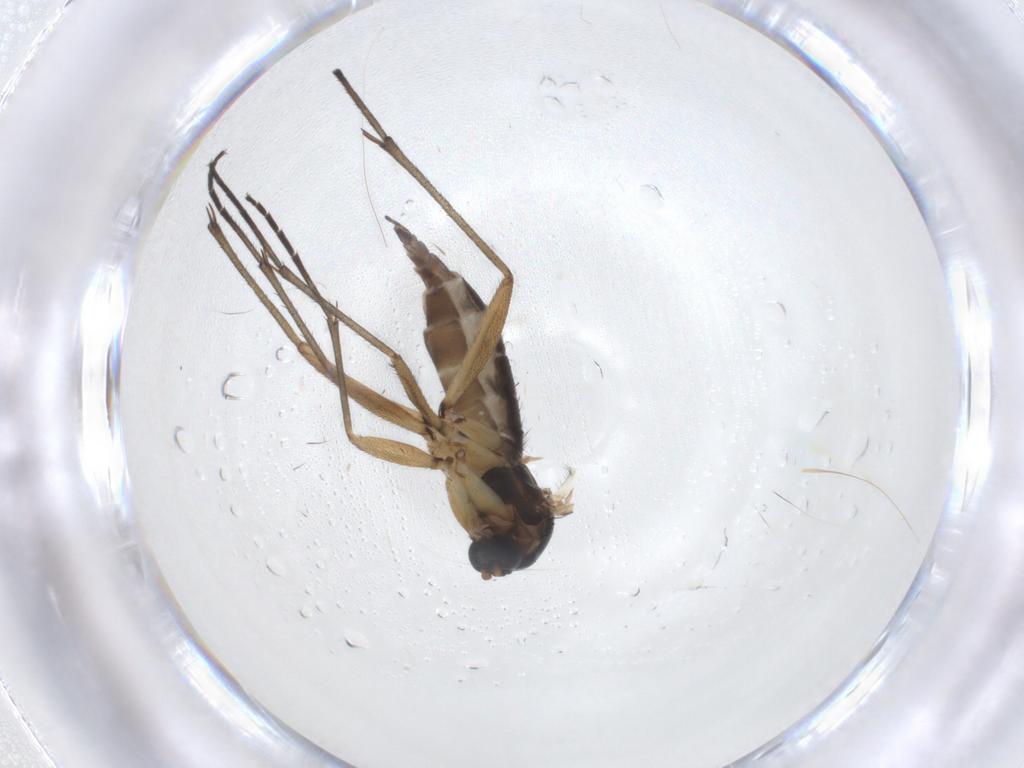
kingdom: Animalia
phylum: Arthropoda
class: Insecta
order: Diptera
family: Sciaridae
